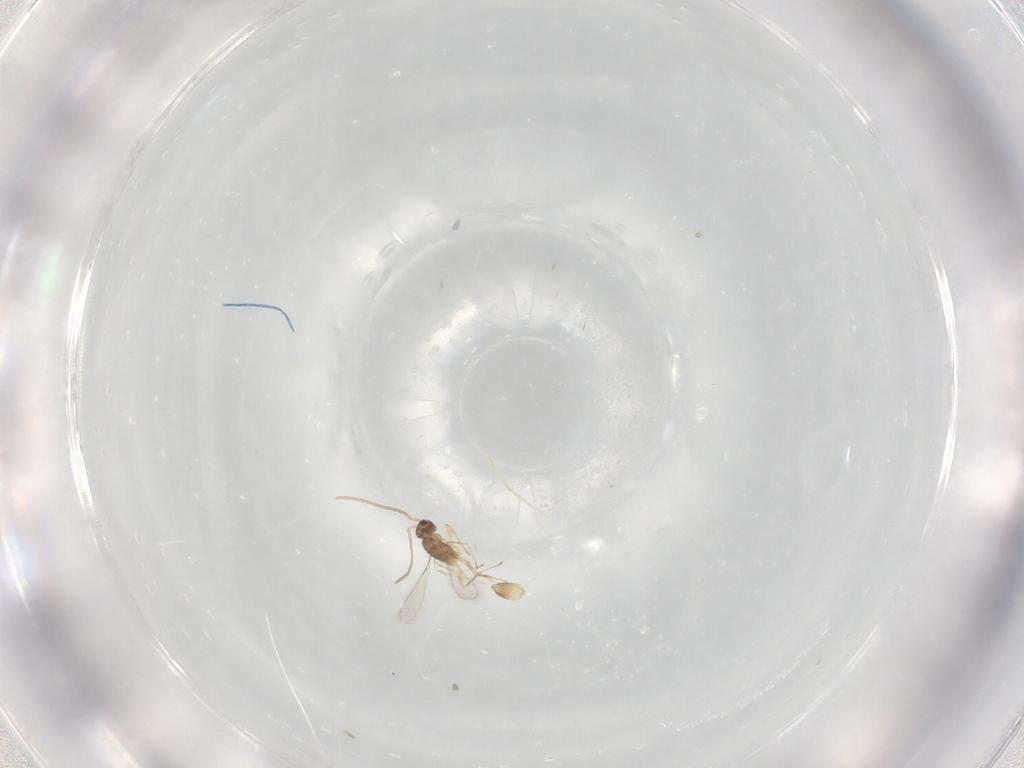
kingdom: Animalia
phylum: Arthropoda
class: Insecta
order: Hymenoptera
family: Mymaridae
